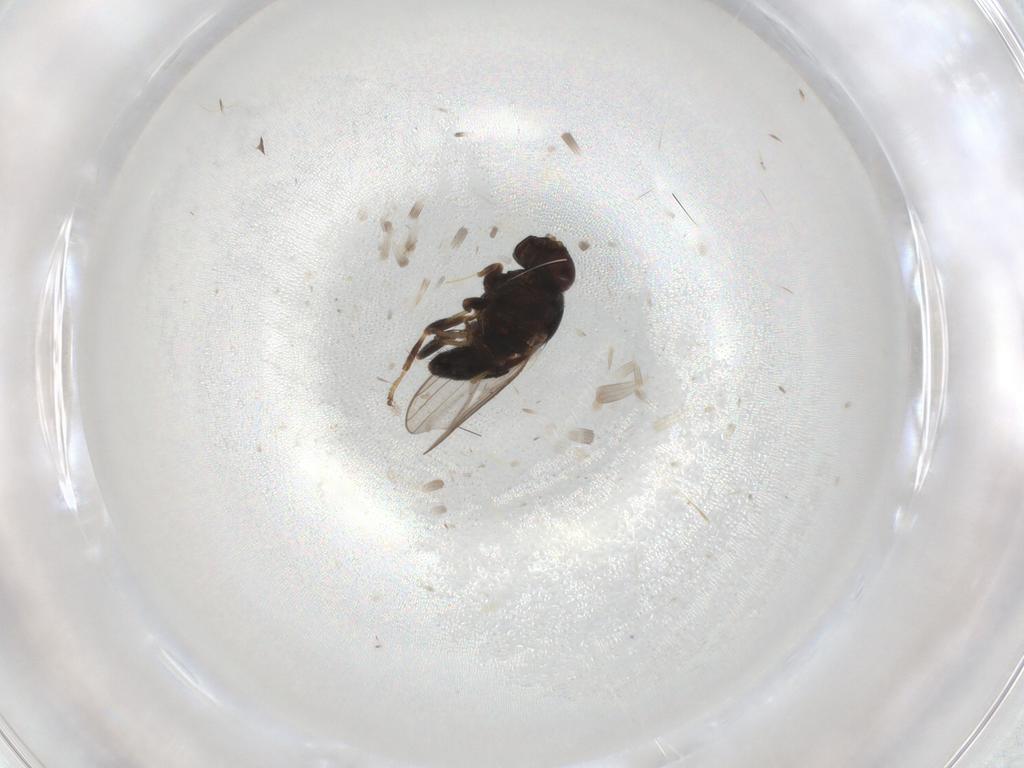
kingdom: Animalia
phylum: Arthropoda
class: Insecta
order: Diptera
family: Chloropidae
